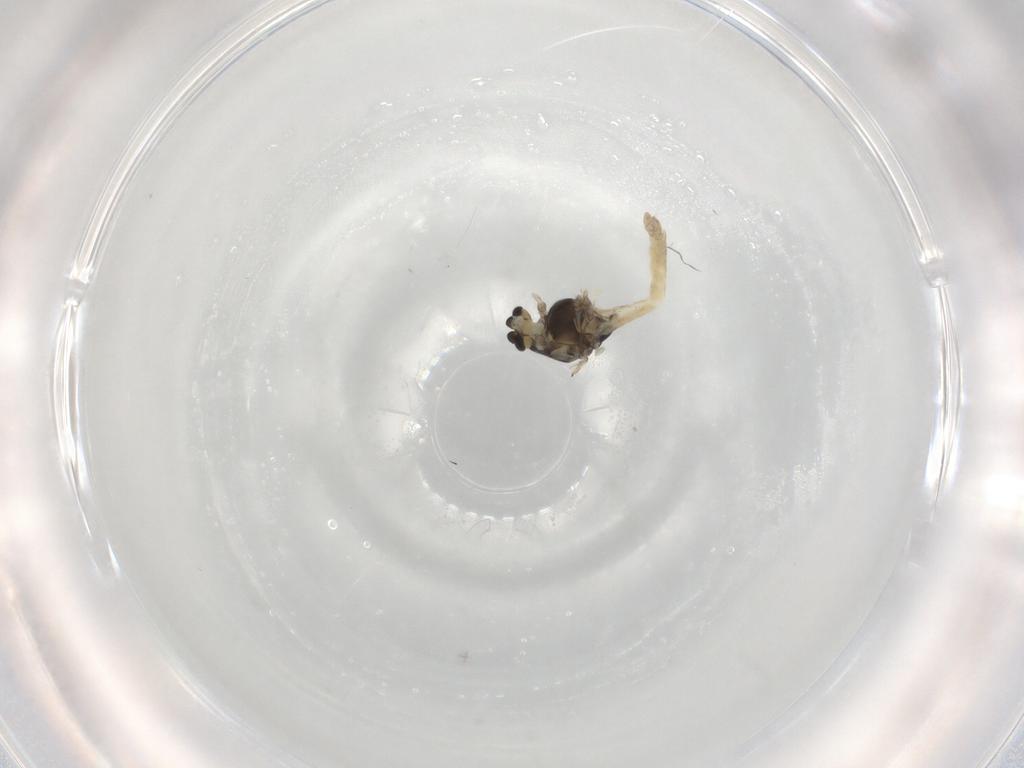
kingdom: Animalia
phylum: Arthropoda
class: Insecta
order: Diptera
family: Chironomidae
